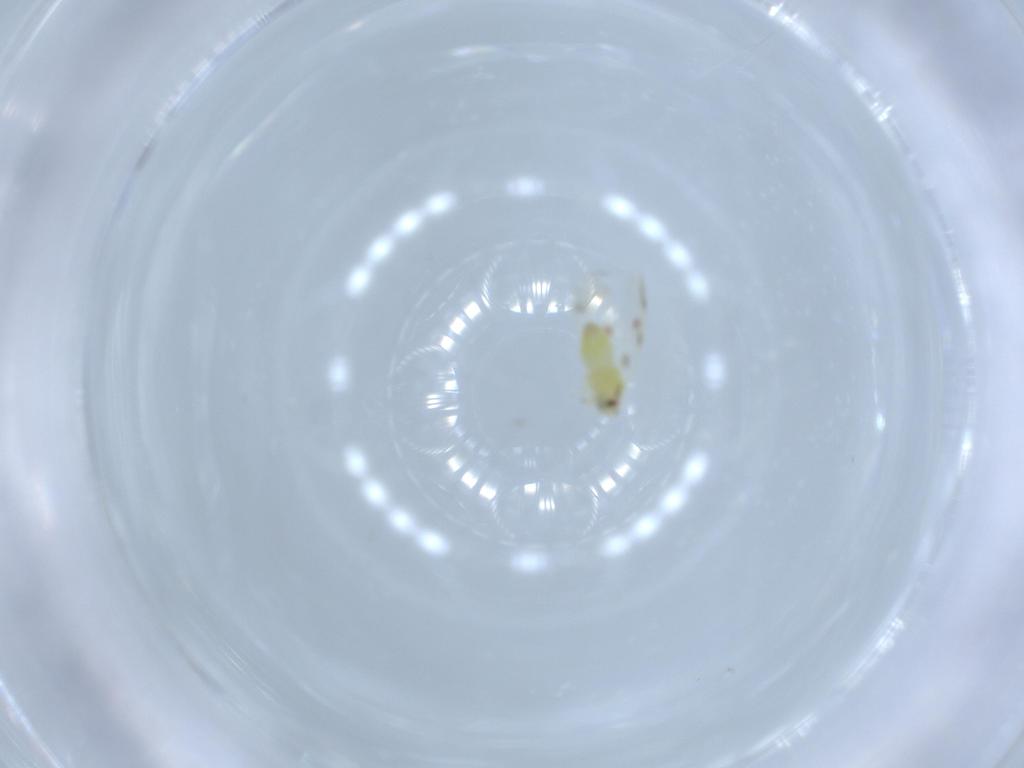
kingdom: Animalia
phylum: Arthropoda
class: Insecta
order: Hemiptera
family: Aleyrodidae
